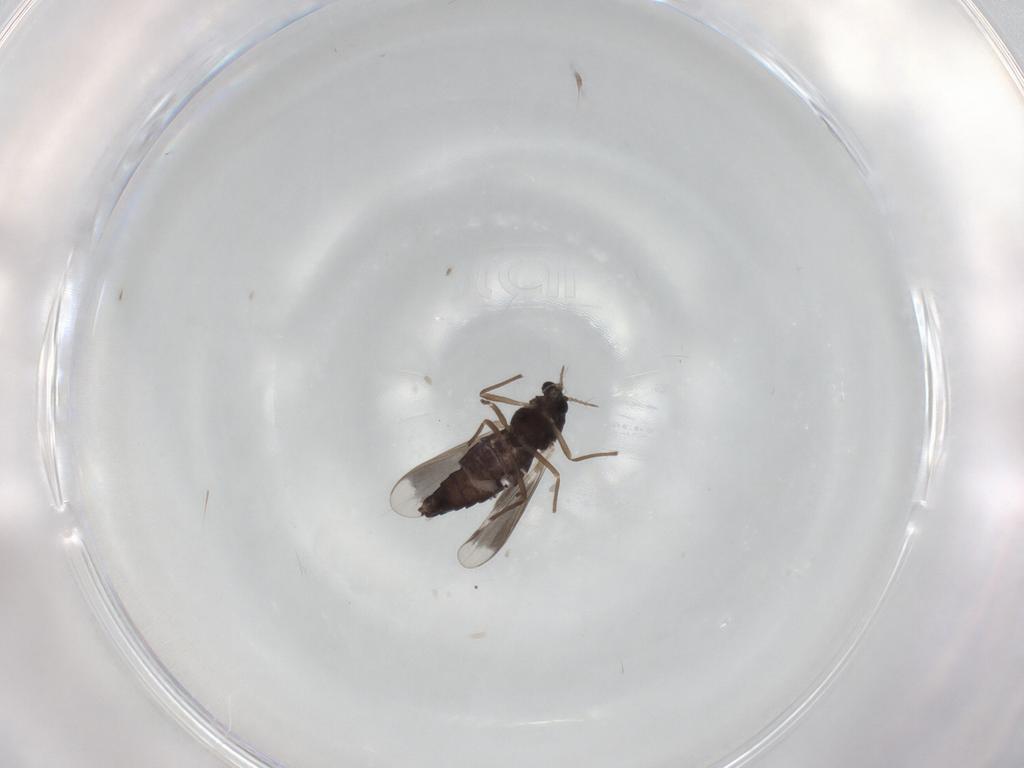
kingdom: Animalia
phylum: Arthropoda
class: Insecta
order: Diptera
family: Chironomidae
